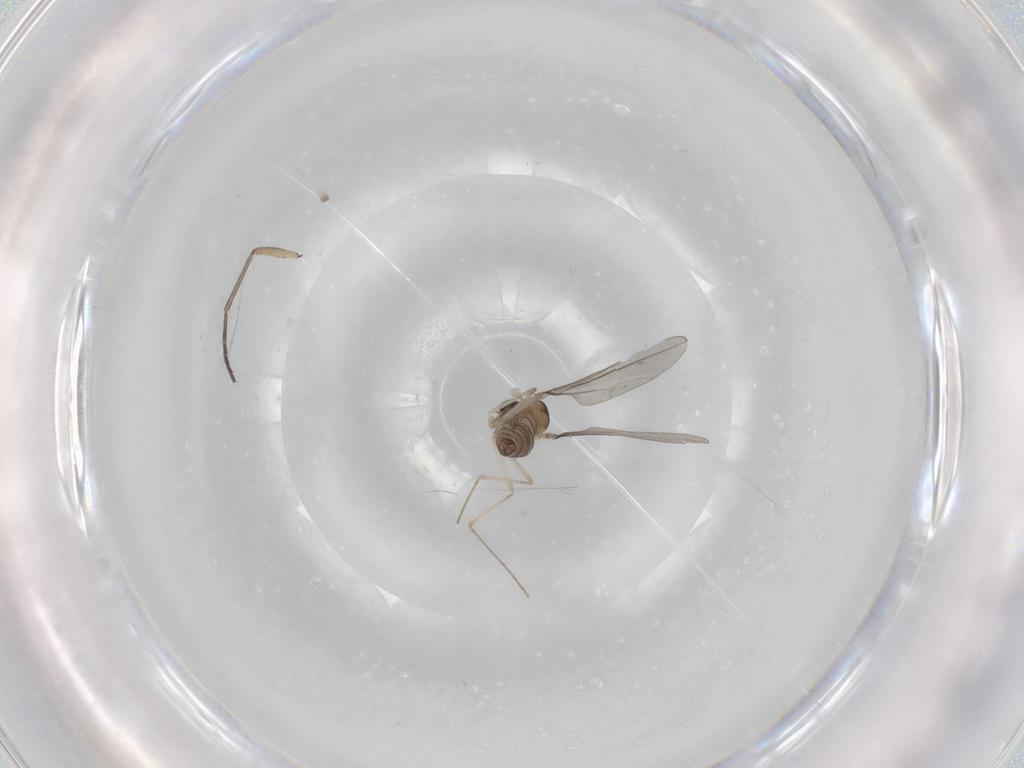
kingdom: Animalia
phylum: Arthropoda
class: Insecta
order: Diptera
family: Cecidomyiidae
